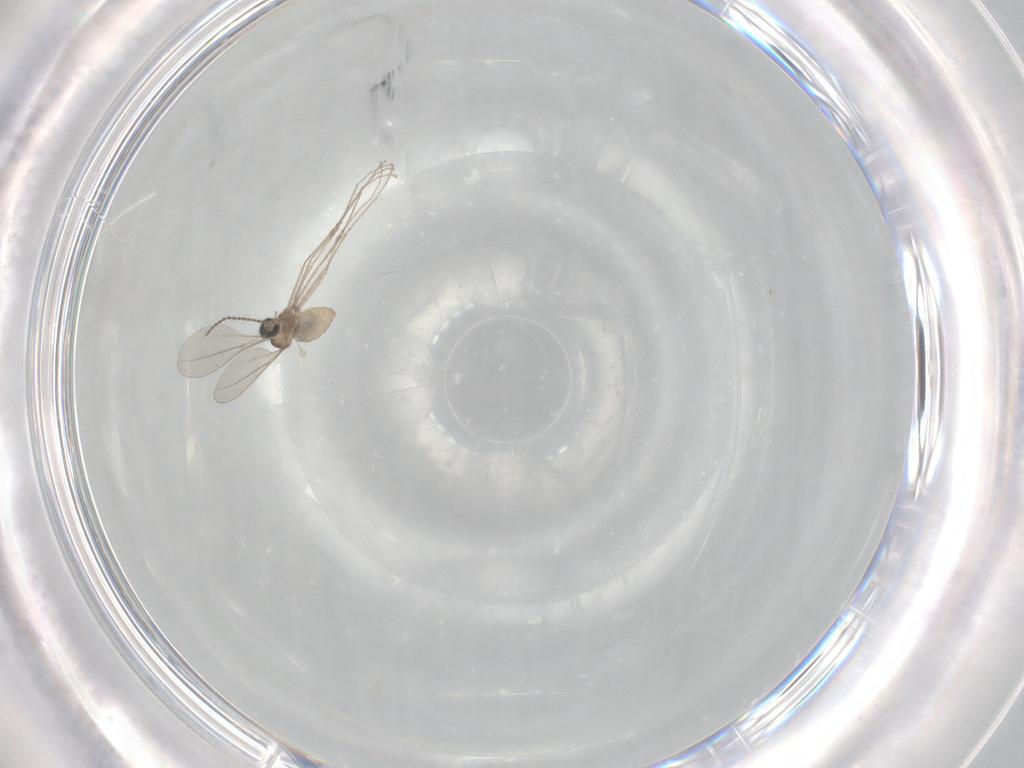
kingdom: Animalia
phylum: Arthropoda
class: Insecta
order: Diptera
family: Cecidomyiidae
